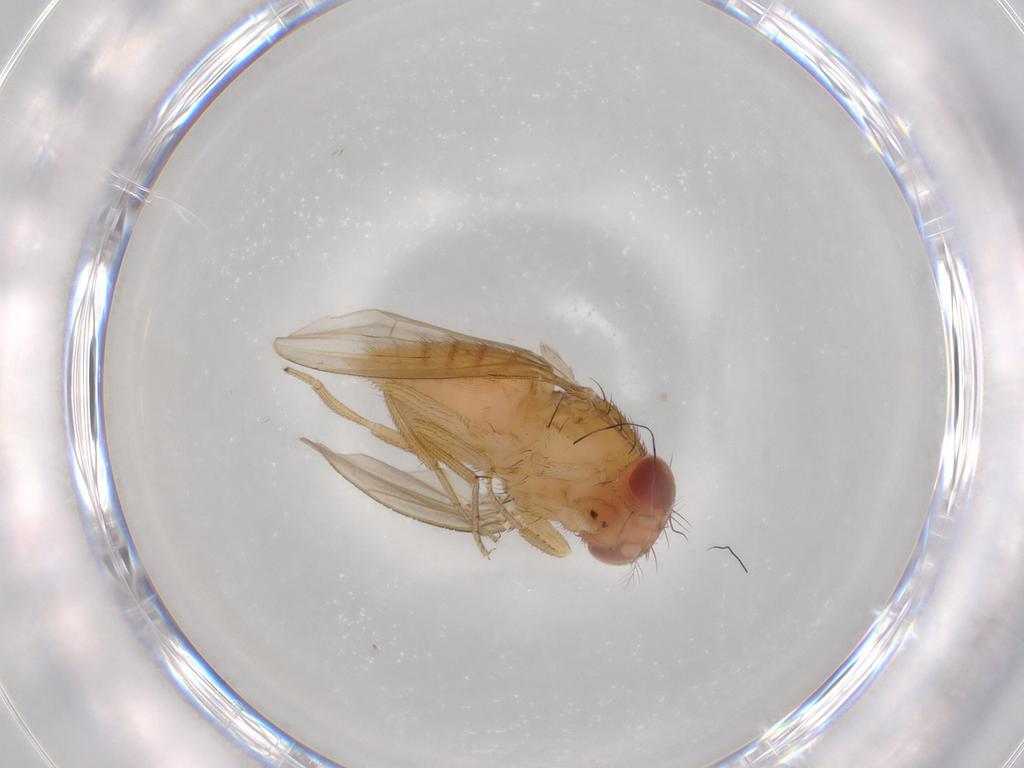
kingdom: Animalia
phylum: Arthropoda
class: Insecta
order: Diptera
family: Drosophilidae
